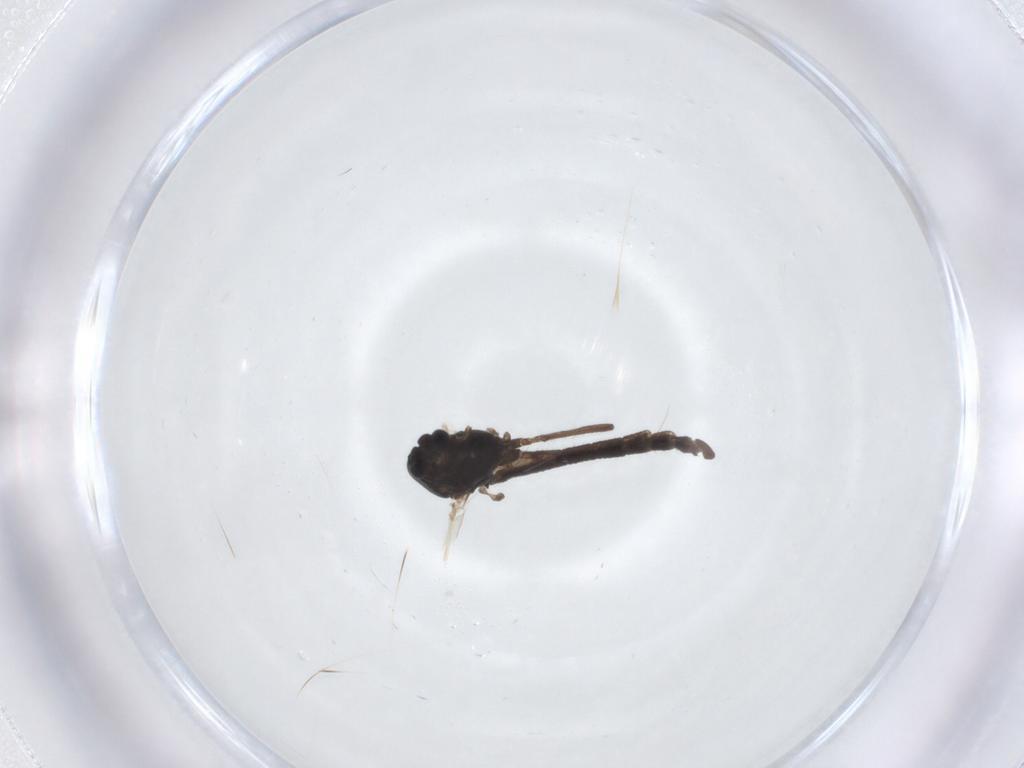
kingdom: Animalia
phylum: Arthropoda
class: Insecta
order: Diptera
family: Chironomidae
